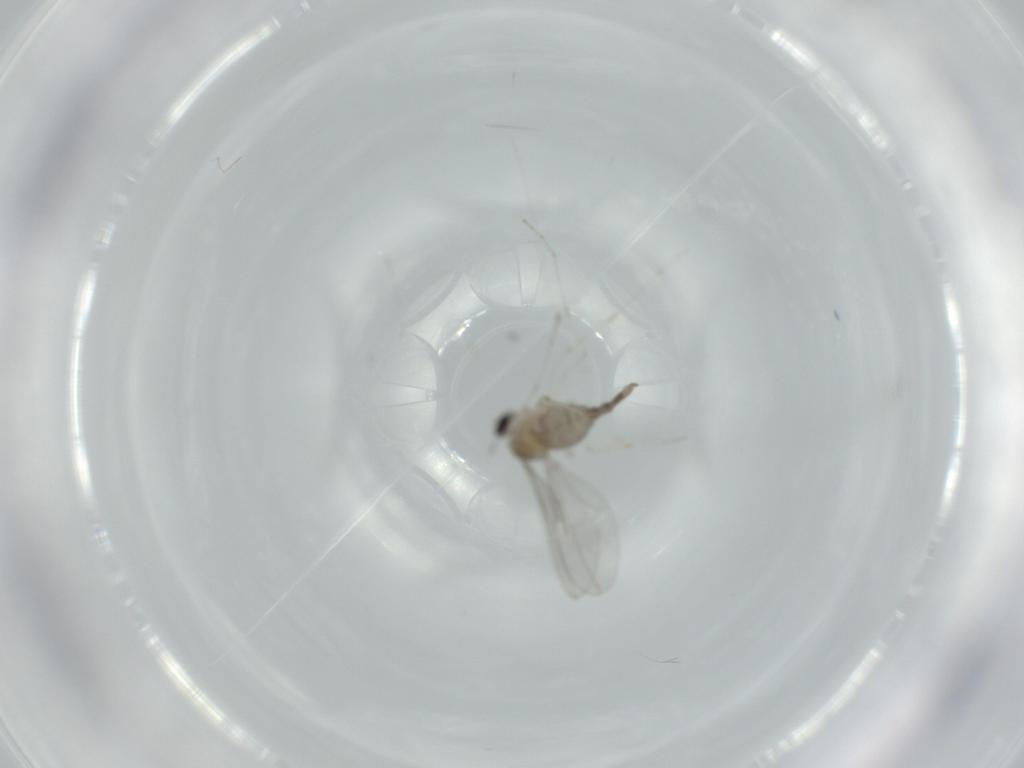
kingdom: Animalia
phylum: Arthropoda
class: Insecta
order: Diptera
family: Cecidomyiidae
